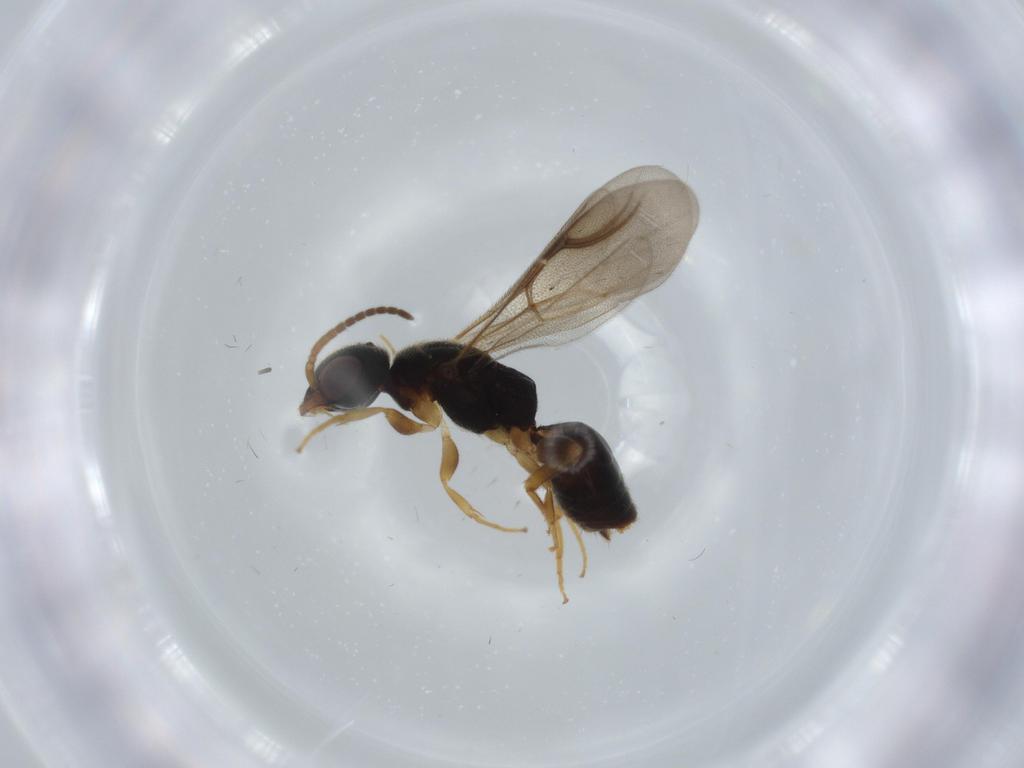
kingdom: Animalia
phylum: Arthropoda
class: Insecta
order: Hymenoptera
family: Bethylidae
